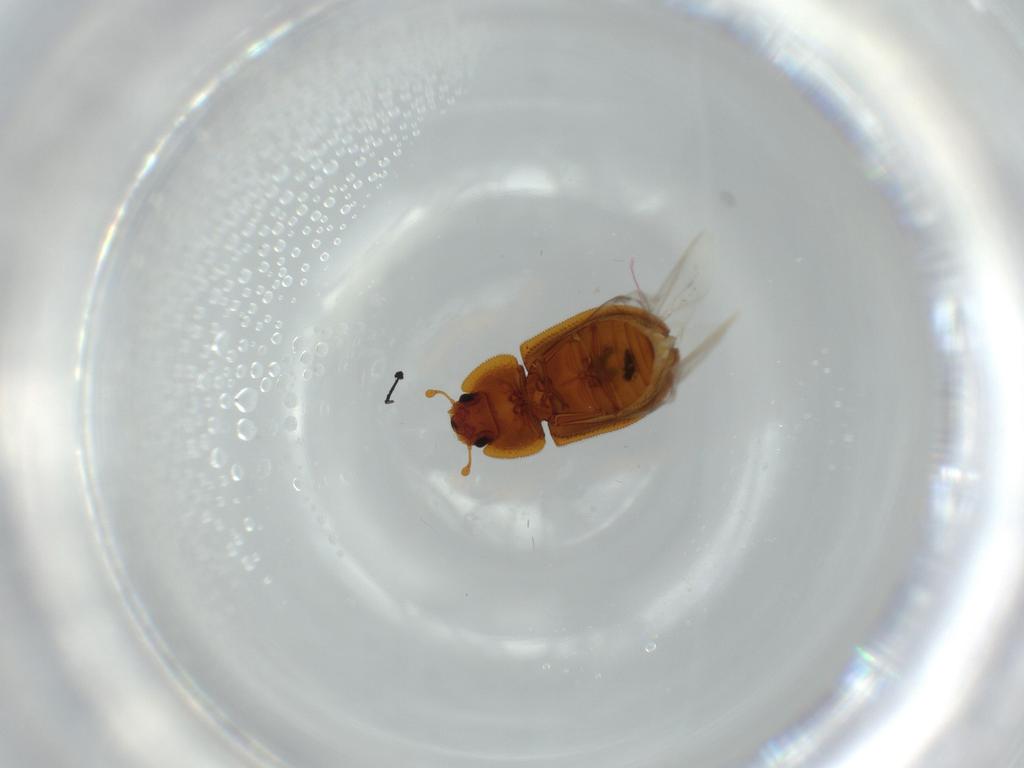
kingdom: Animalia
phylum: Arthropoda
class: Insecta
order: Coleoptera
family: Zopheridae
